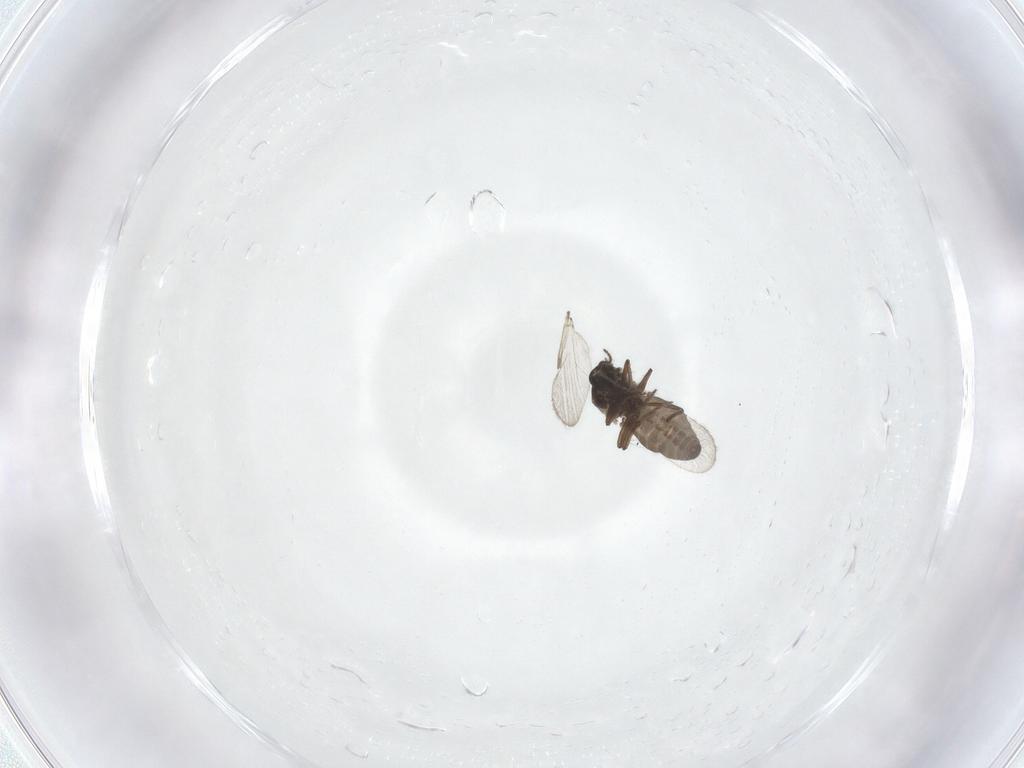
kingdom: Animalia
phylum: Arthropoda
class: Insecta
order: Diptera
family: Ceratopogonidae
